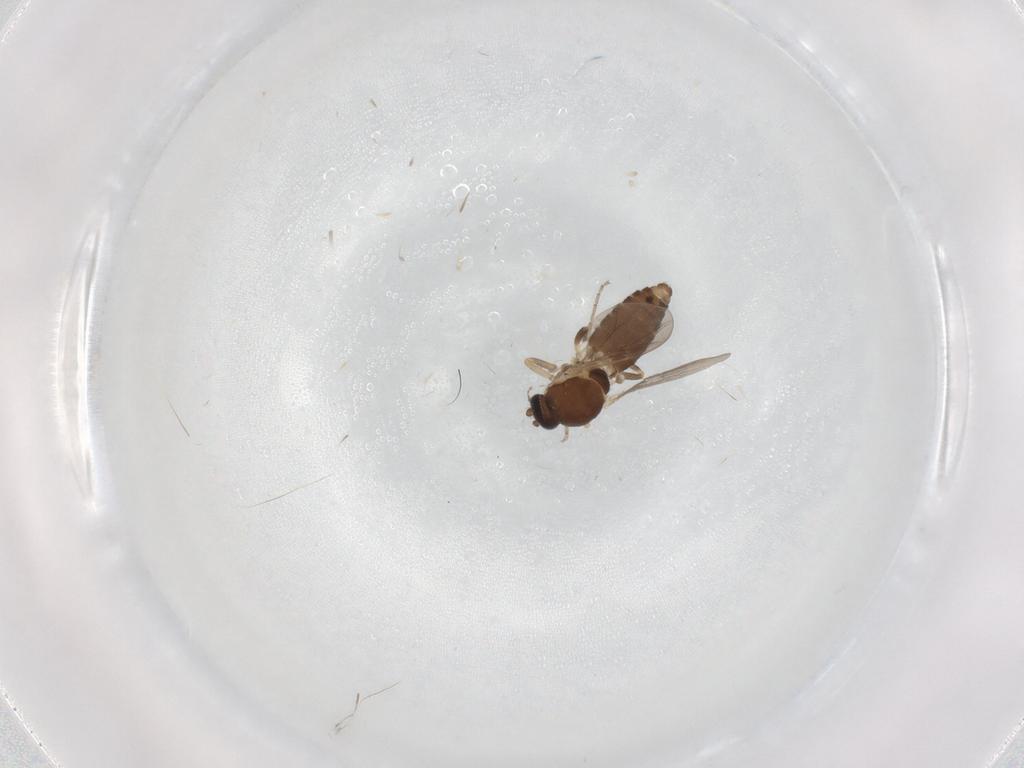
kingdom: Animalia
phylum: Arthropoda
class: Insecta
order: Diptera
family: Ceratopogonidae
